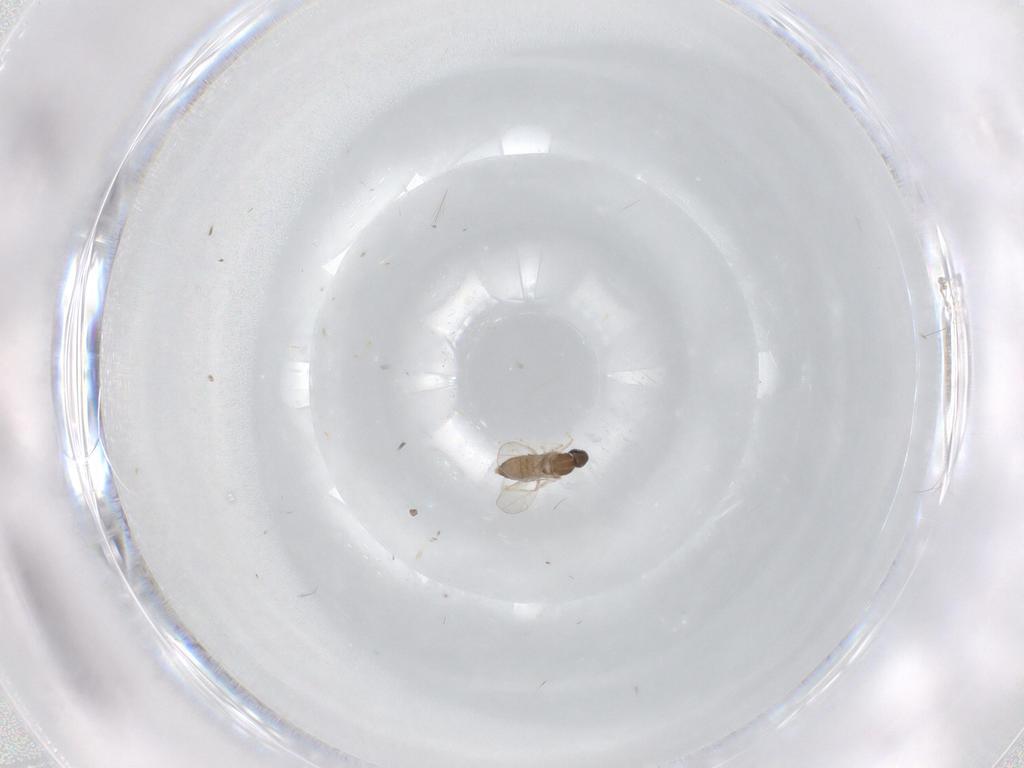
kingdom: Animalia
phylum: Arthropoda
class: Insecta
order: Diptera
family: Cecidomyiidae
